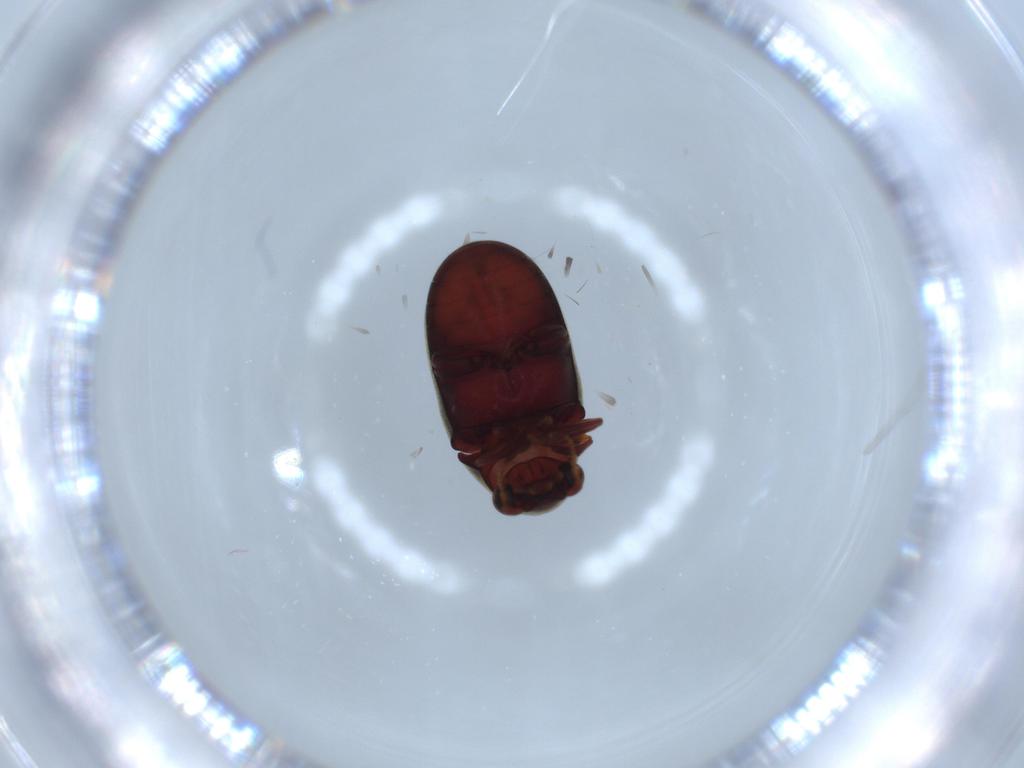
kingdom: Animalia
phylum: Arthropoda
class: Insecta
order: Coleoptera
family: Ptinidae
